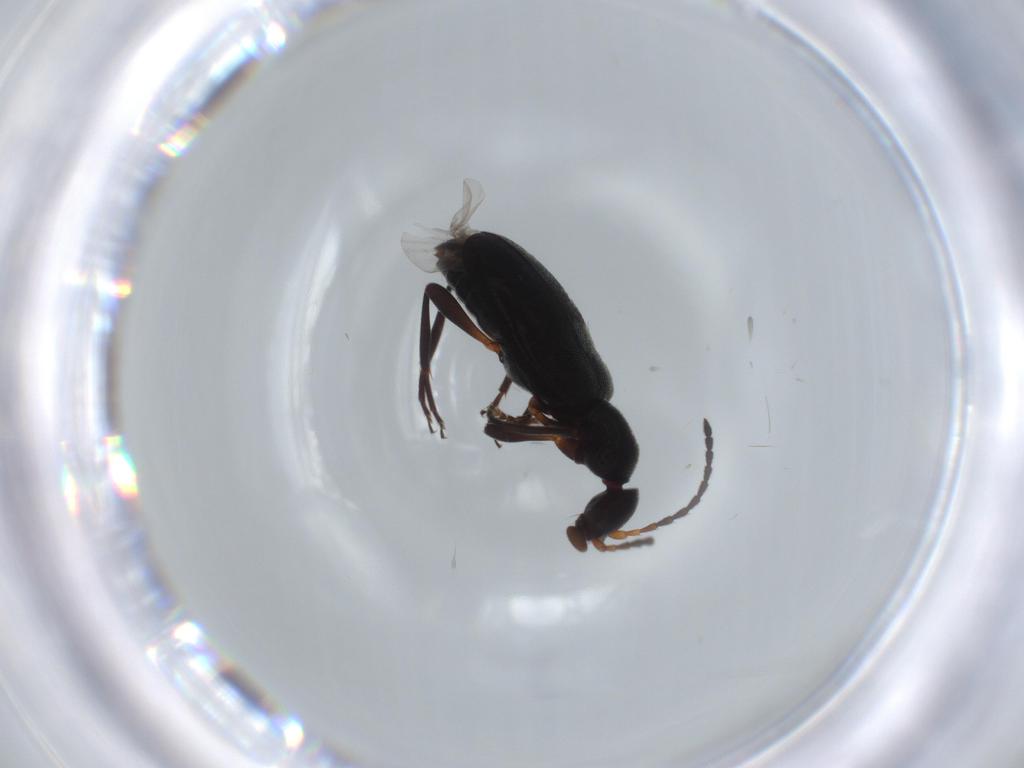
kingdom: Animalia
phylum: Arthropoda
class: Insecta
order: Coleoptera
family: Anthicidae
